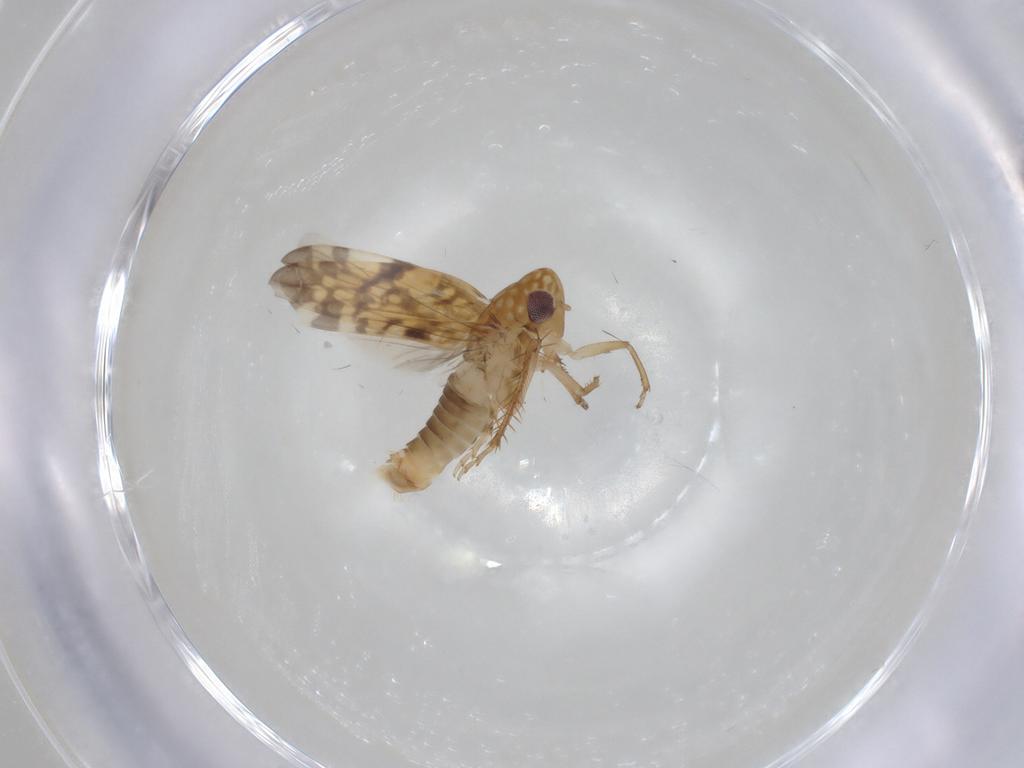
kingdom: Animalia
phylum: Arthropoda
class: Insecta
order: Hemiptera
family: Cicadellidae
